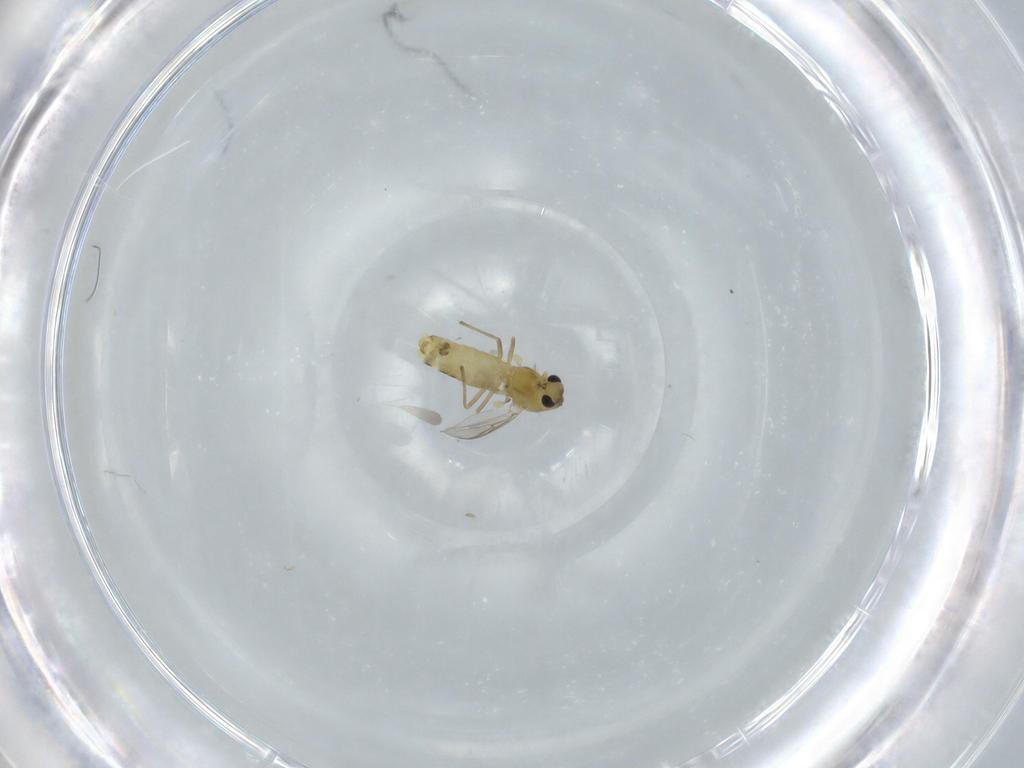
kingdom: Animalia
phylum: Arthropoda
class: Insecta
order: Diptera
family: Chironomidae
